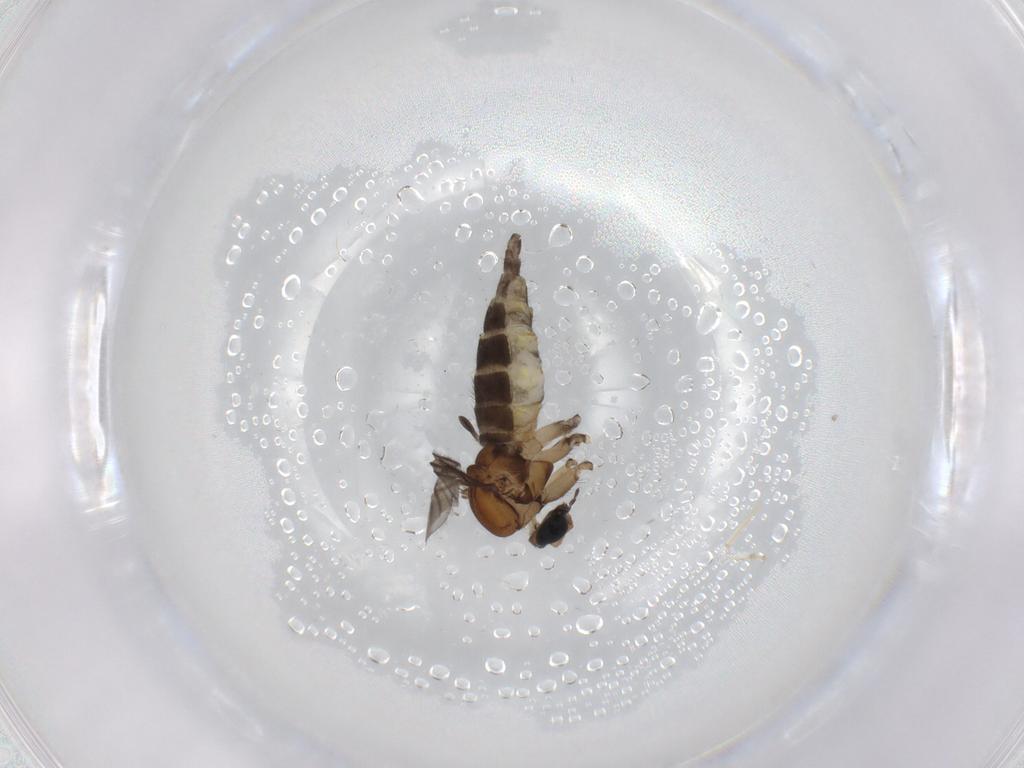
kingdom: Animalia
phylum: Arthropoda
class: Insecta
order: Diptera
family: Sciaridae
